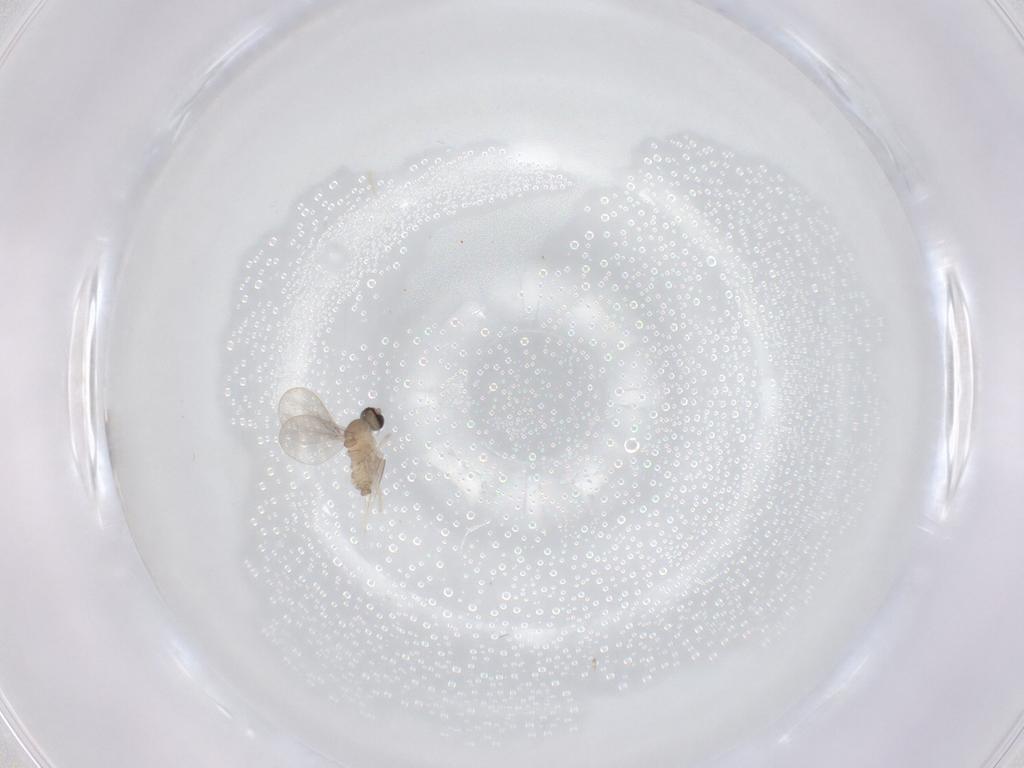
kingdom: Animalia
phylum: Arthropoda
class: Insecta
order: Diptera
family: Cecidomyiidae
